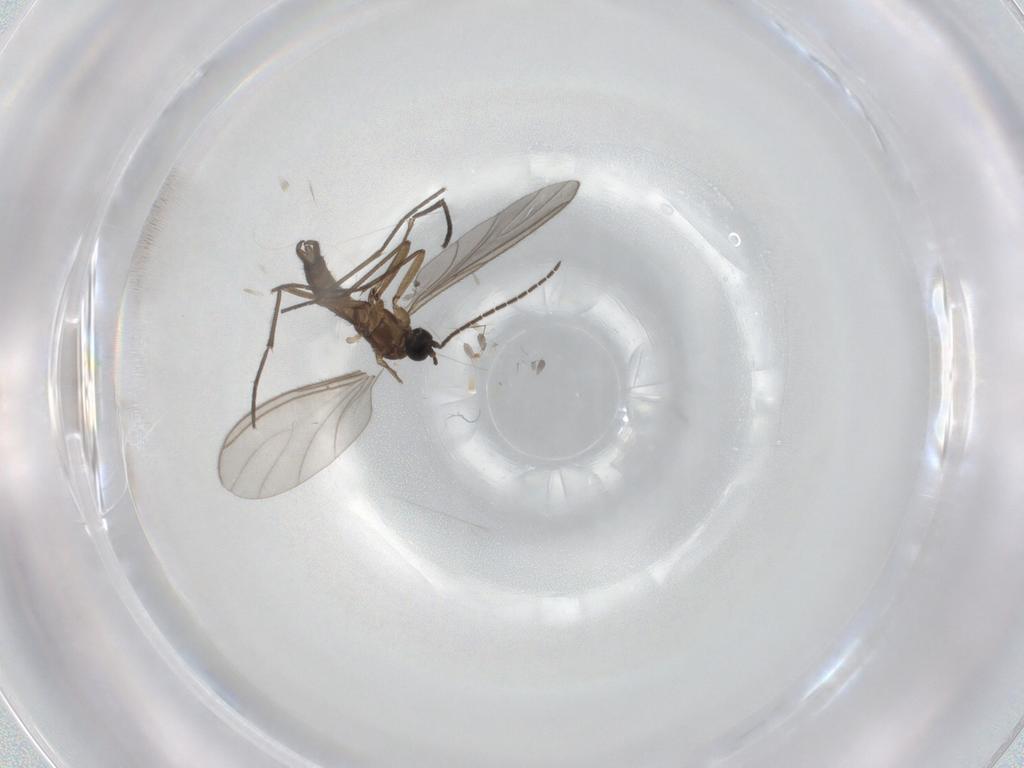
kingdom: Animalia
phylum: Arthropoda
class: Insecta
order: Diptera
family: Sciaridae
